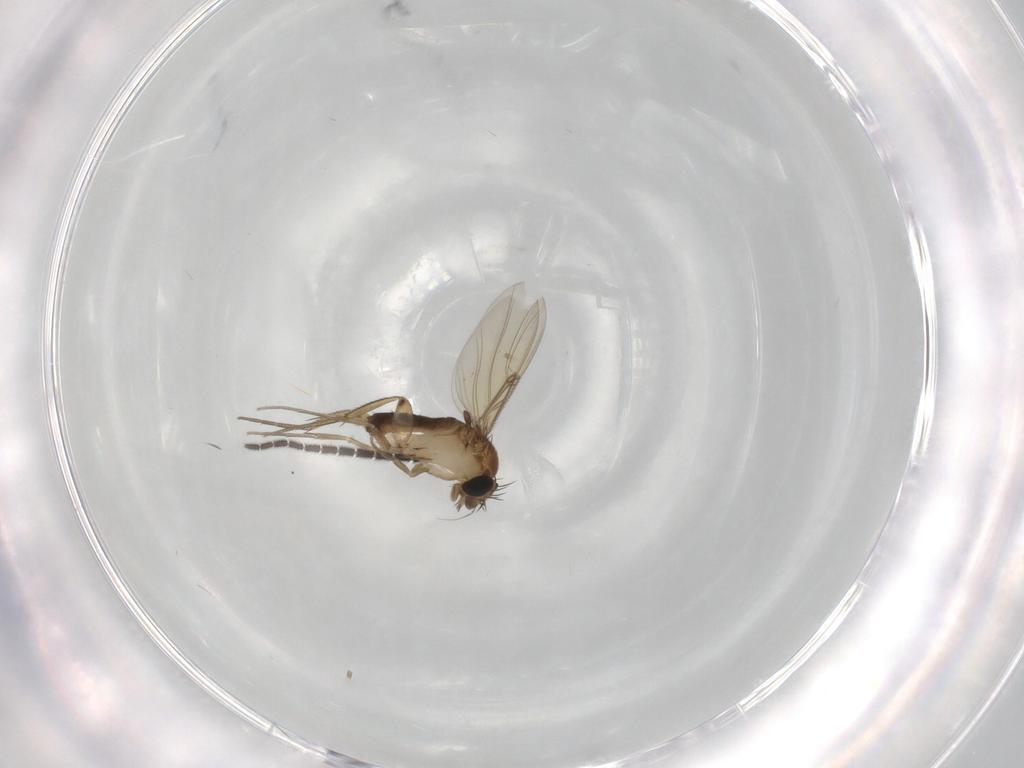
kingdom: Animalia
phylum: Arthropoda
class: Insecta
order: Diptera
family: Phoridae
